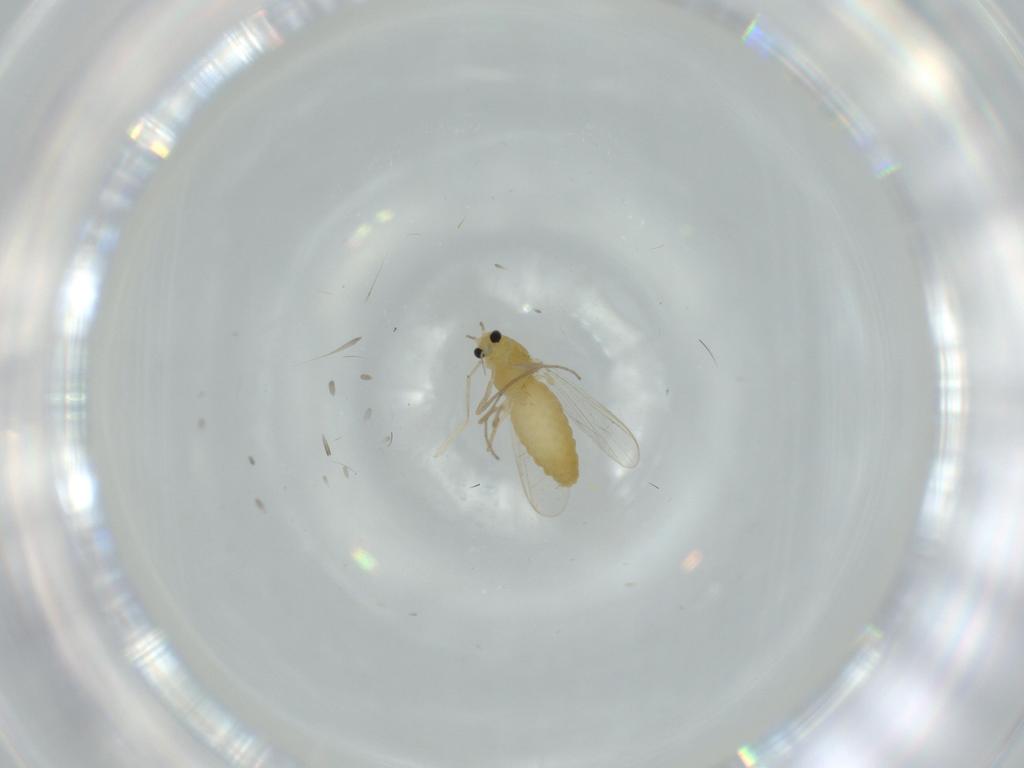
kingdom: Animalia
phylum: Arthropoda
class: Insecta
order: Diptera
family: Chironomidae
